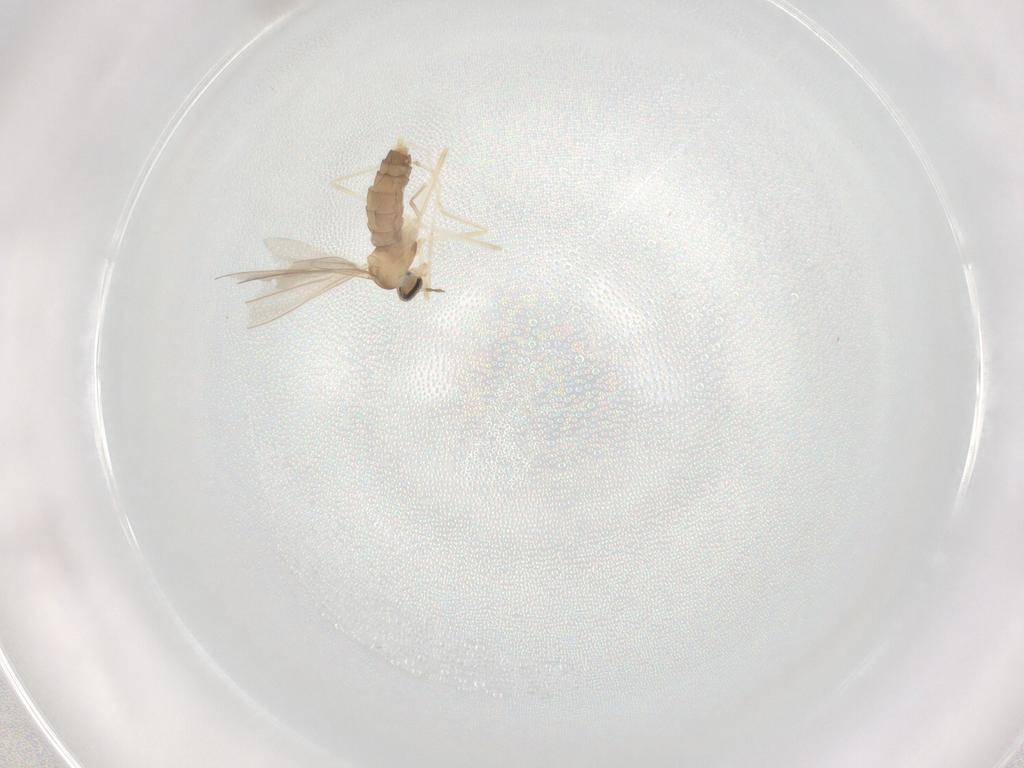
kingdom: Animalia
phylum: Arthropoda
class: Insecta
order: Diptera
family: Cecidomyiidae
